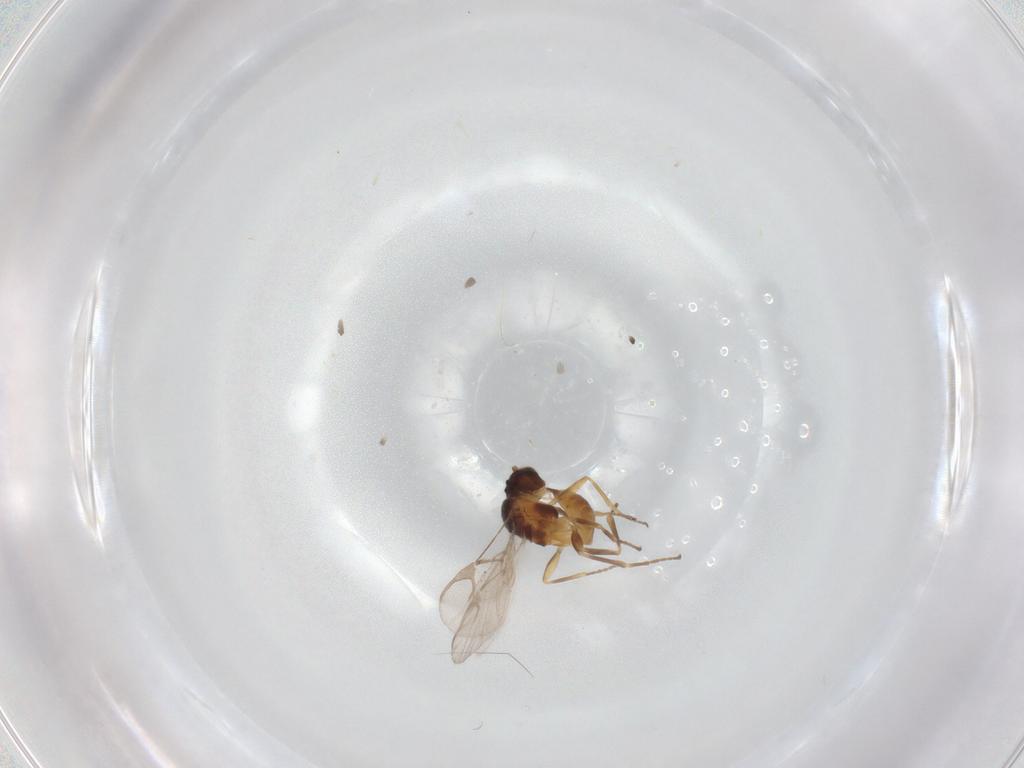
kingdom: Animalia
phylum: Arthropoda
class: Insecta
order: Hymenoptera
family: Braconidae
